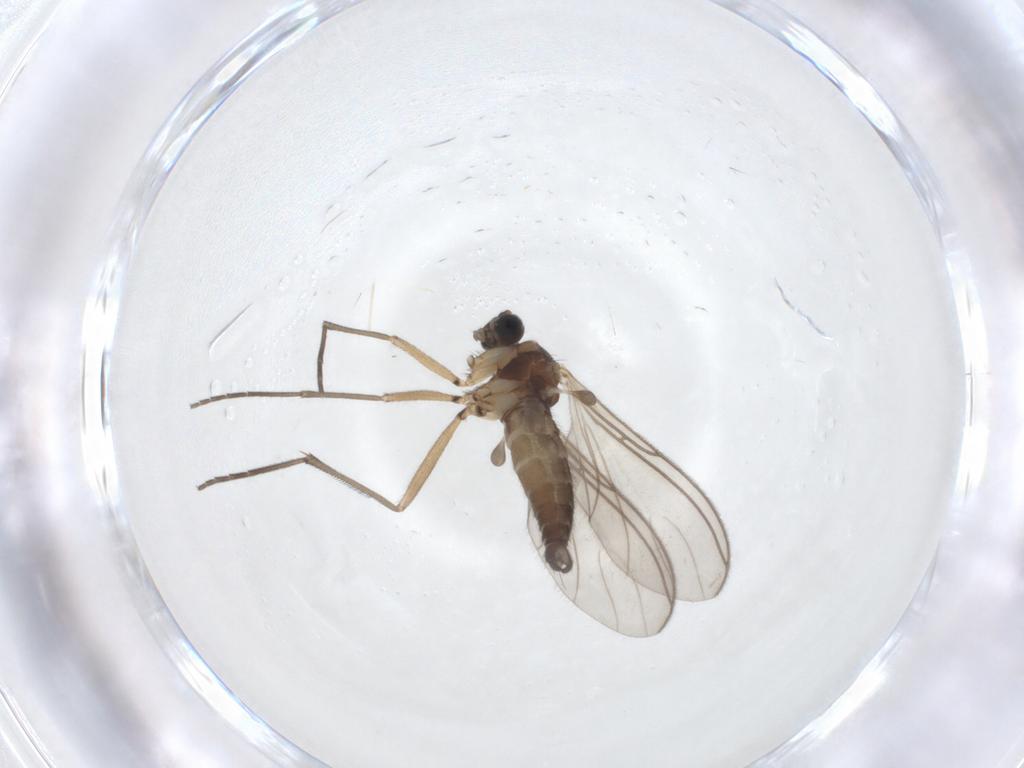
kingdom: Animalia
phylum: Arthropoda
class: Insecta
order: Diptera
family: Sciaridae
